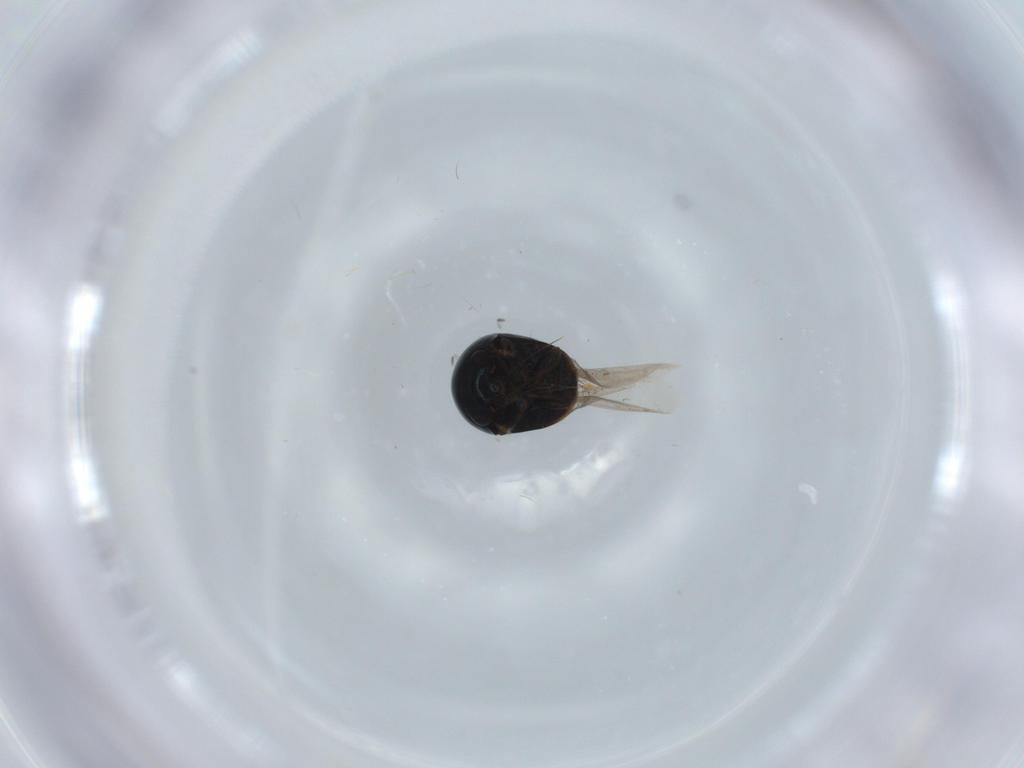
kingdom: Animalia
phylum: Arthropoda
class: Insecta
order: Coleoptera
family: Cybocephalidae
